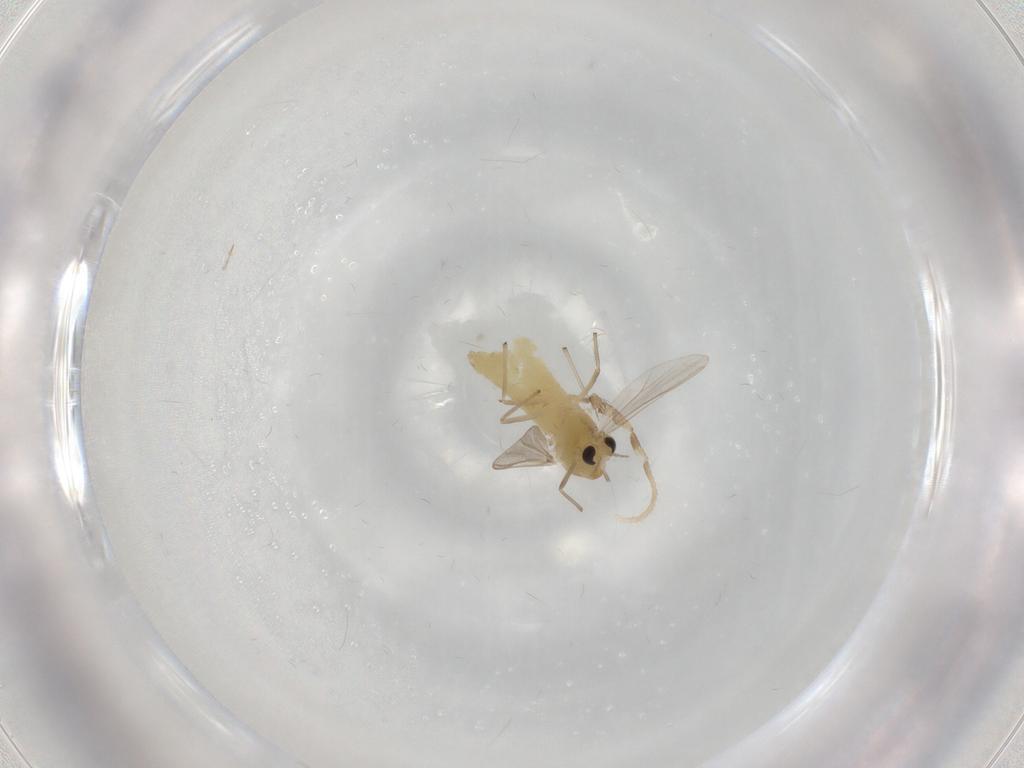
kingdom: Animalia
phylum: Arthropoda
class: Insecta
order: Diptera
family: Chironomidae
